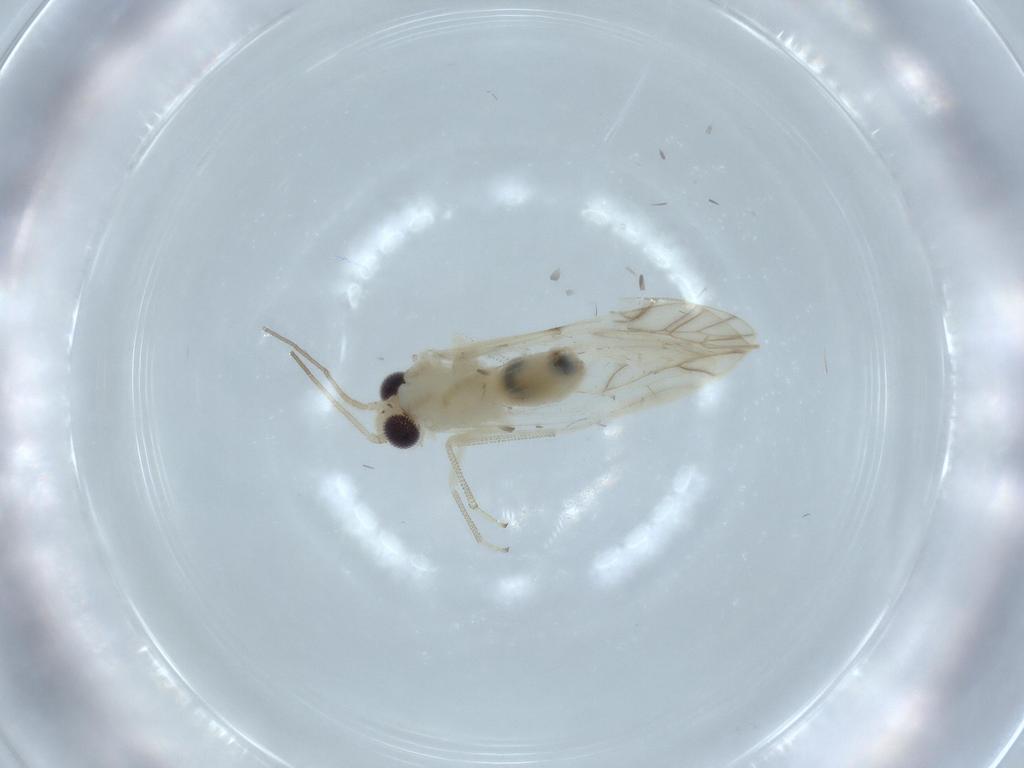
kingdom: Animalia
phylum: Arthropoda
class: Insecta
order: Psocodea
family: Caeciliusidae
